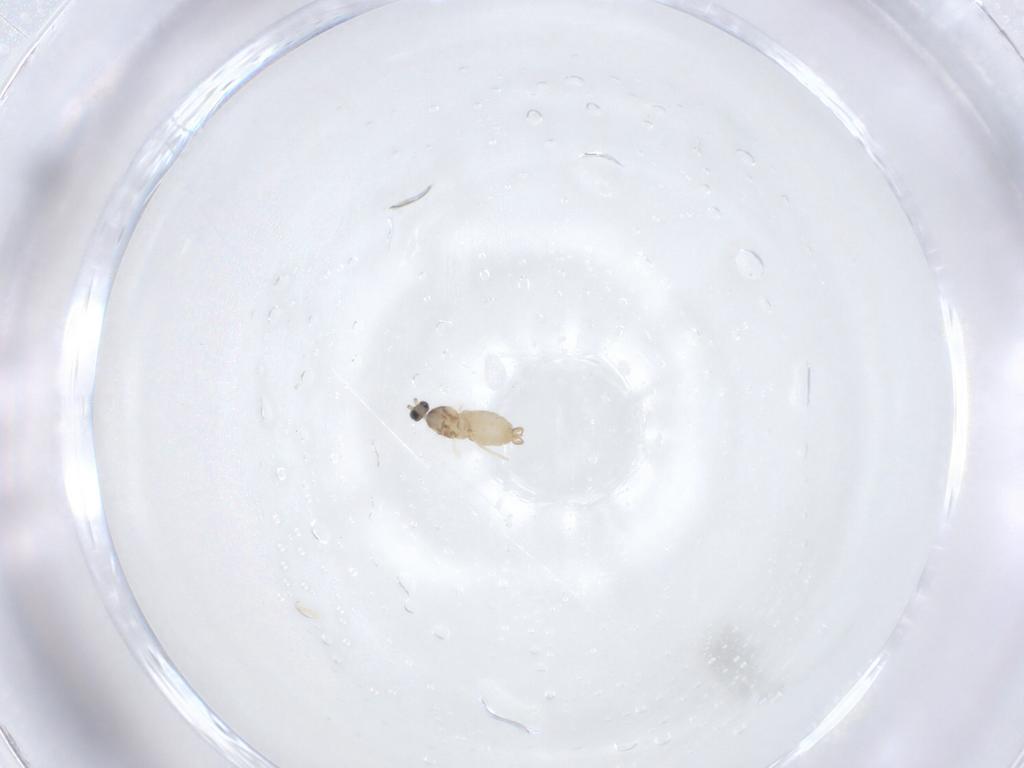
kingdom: Animalia
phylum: Arthropoda
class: Insecta
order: Diptera
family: Cecidomyiidae
